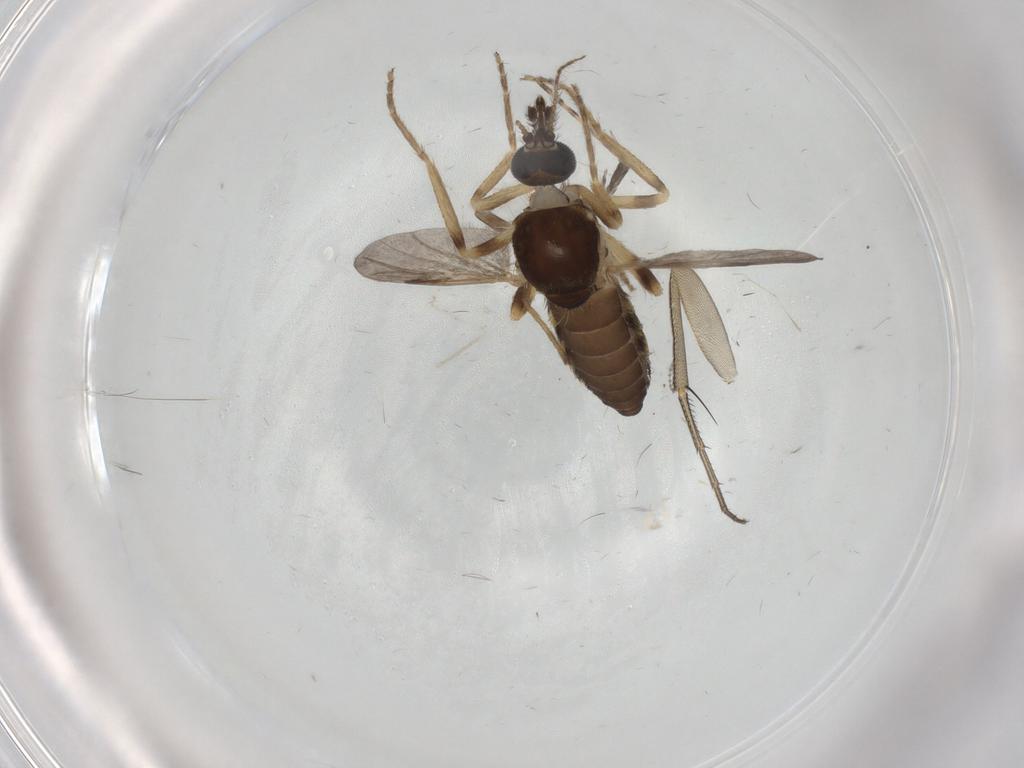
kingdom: Animalia
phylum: Arthropoda
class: Insecta
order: Diptera
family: Ceratopogonidae
